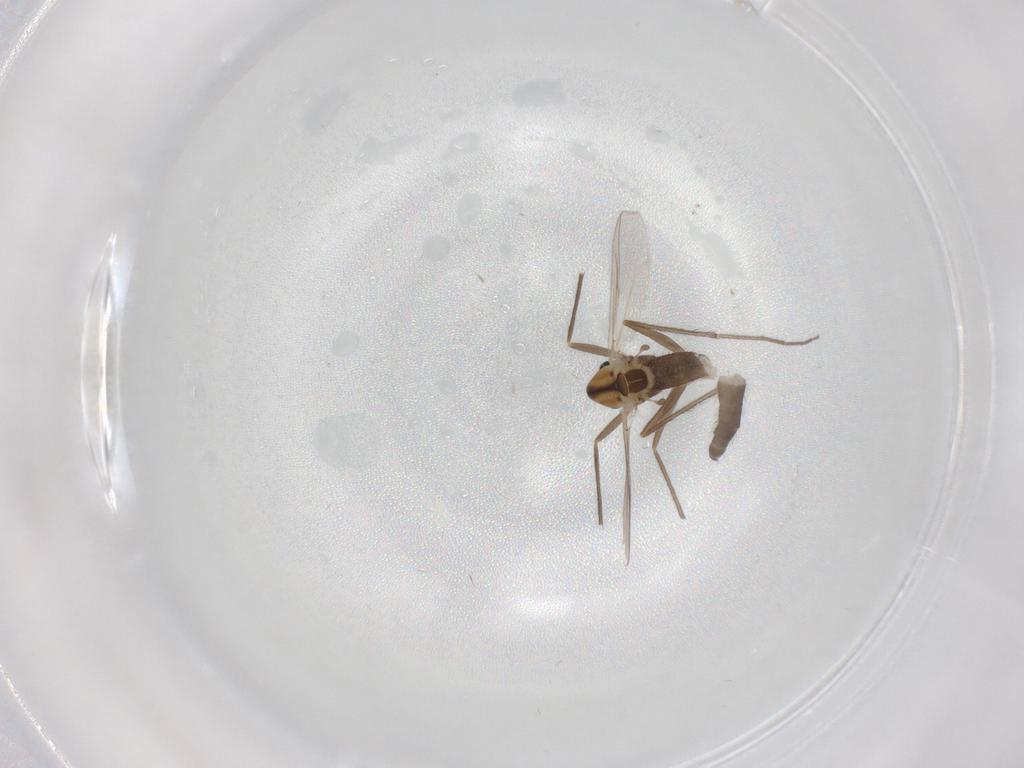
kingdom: Animalia
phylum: Arthropoda
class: Insecta
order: Diptera
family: Chironomidae
